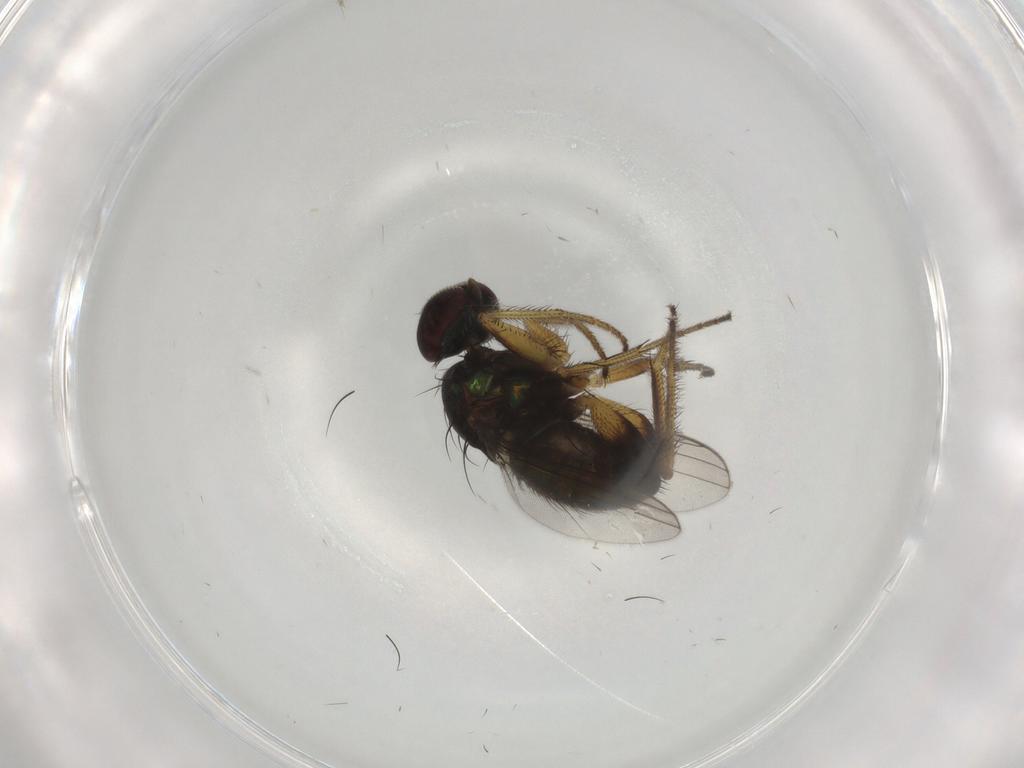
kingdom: Animalia
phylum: Arthropoda
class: Insecta
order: Diptera
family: Dolichopodidae
